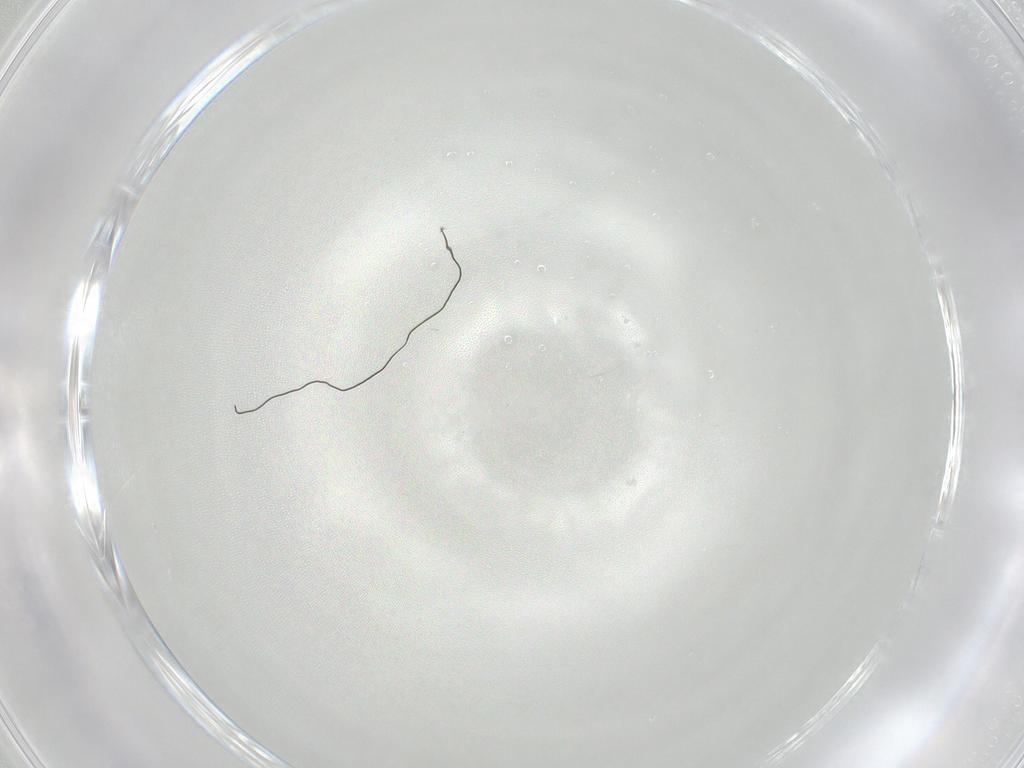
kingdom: Animalia
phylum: Arthropoda
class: Insecta
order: Diptera
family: Chironomidae
